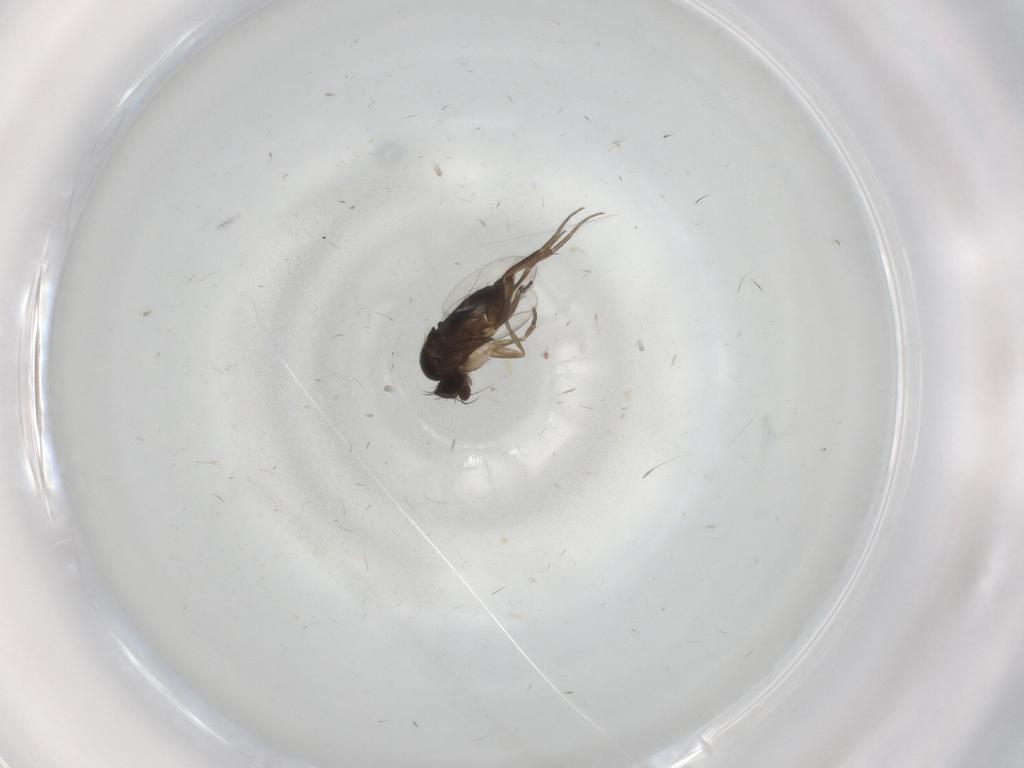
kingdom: Animalia
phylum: Arthropoda
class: Insecta
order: Diptera
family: Phoridae
